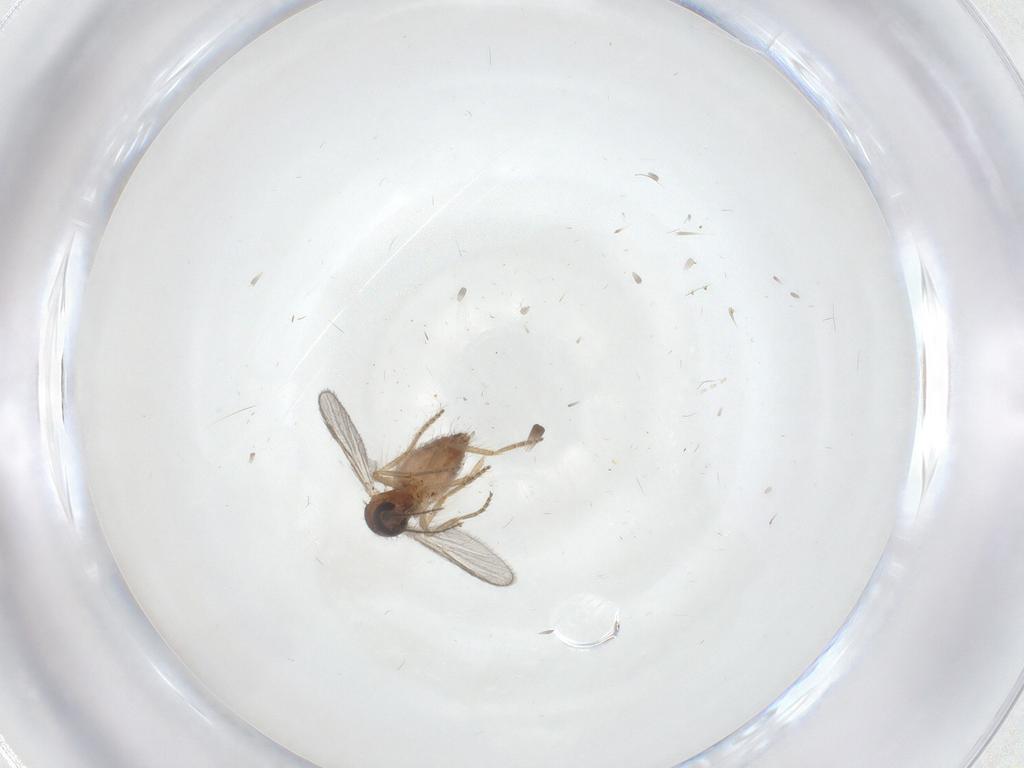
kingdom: Animalia
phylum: Arthropoda
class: Insecta
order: Diptera
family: Ceratopogonidae
